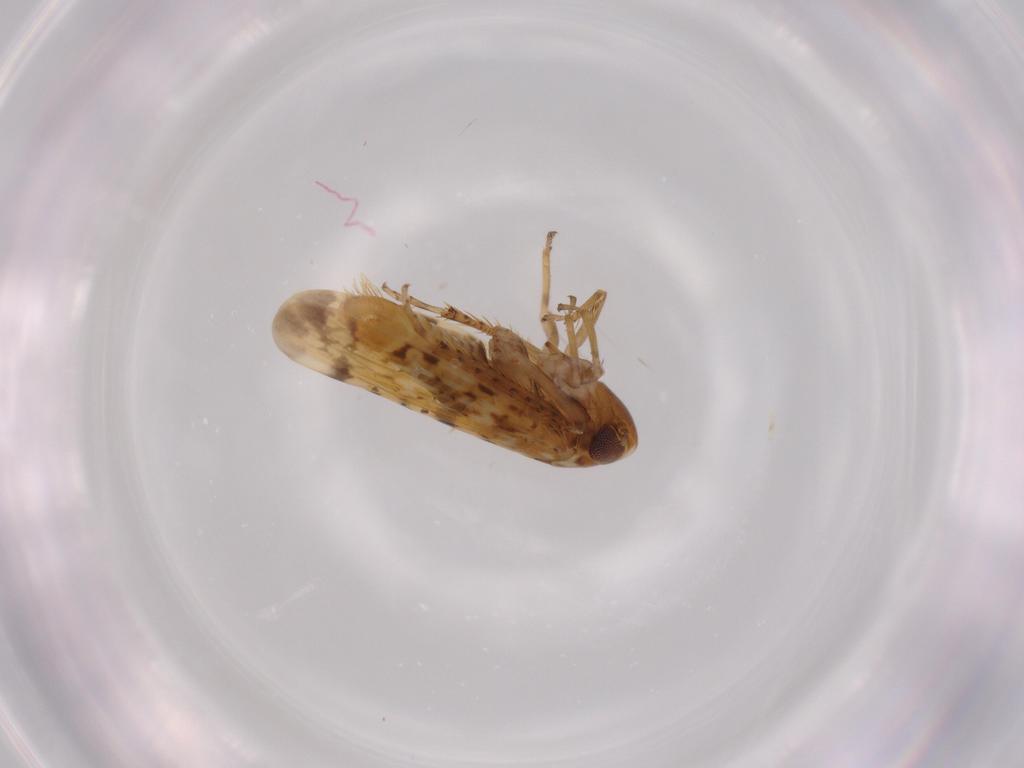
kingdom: Animalia
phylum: Arthropoda
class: Insecta
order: Hemiptera
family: Cicadellidae
